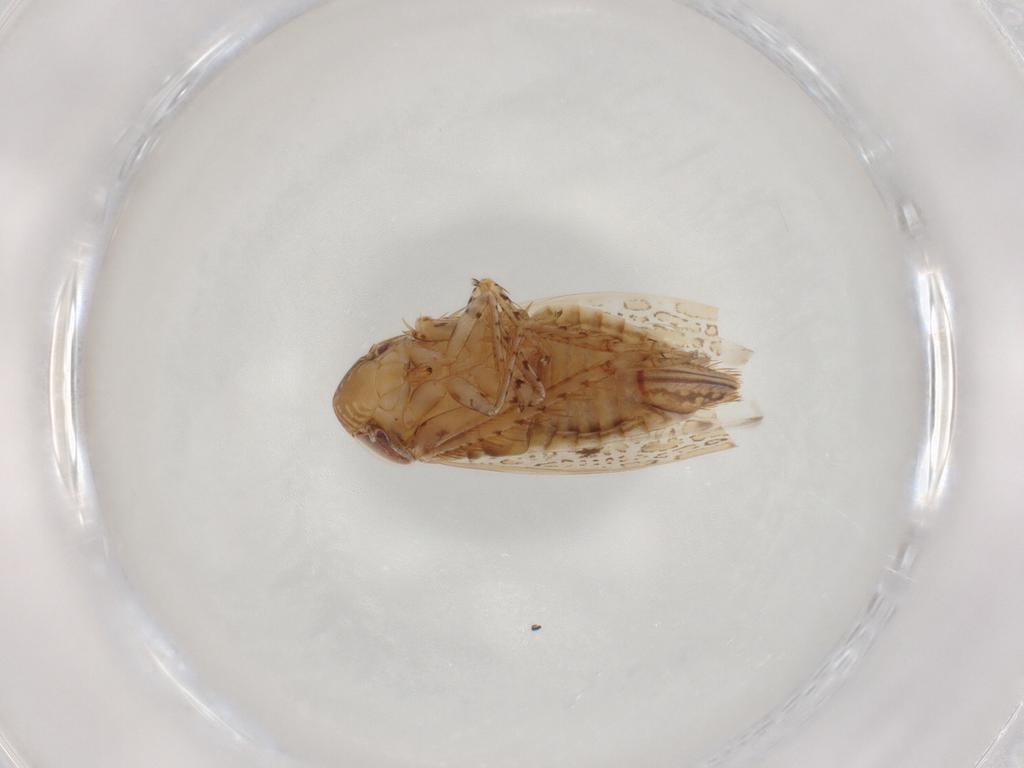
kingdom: Animalia
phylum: Arthropoda
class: Insecta
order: Hemiptera
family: Cicadellidae
